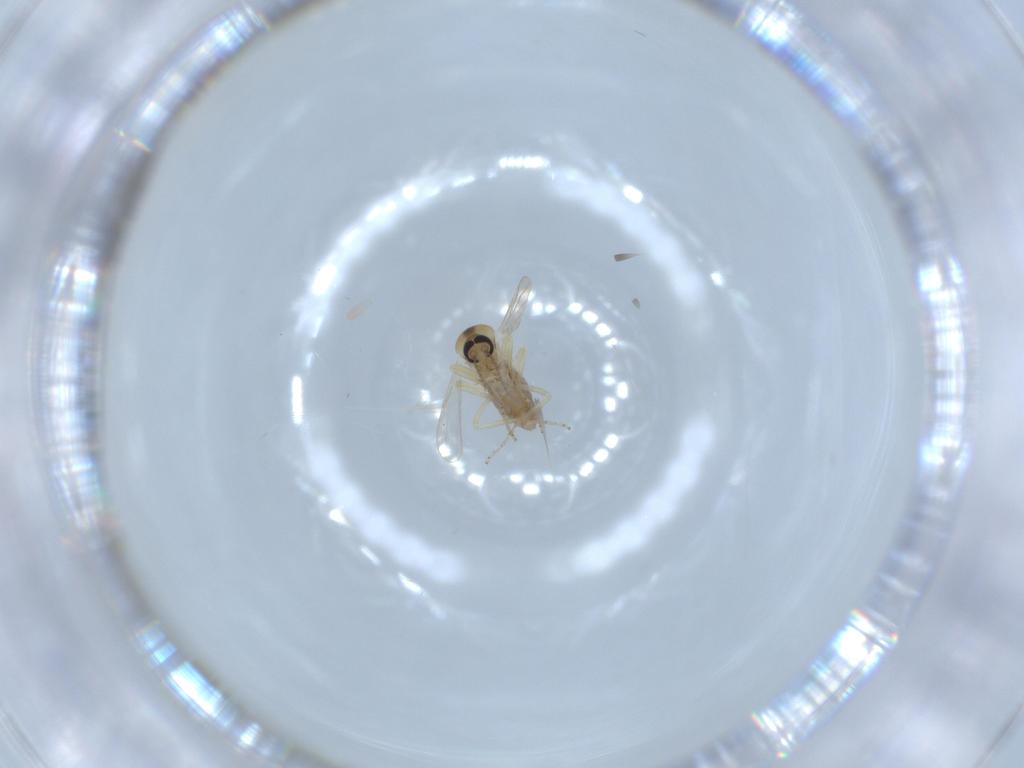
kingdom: Animalia
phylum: Arthropoda
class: Insecta
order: Diptera
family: Ceratopogonidae
